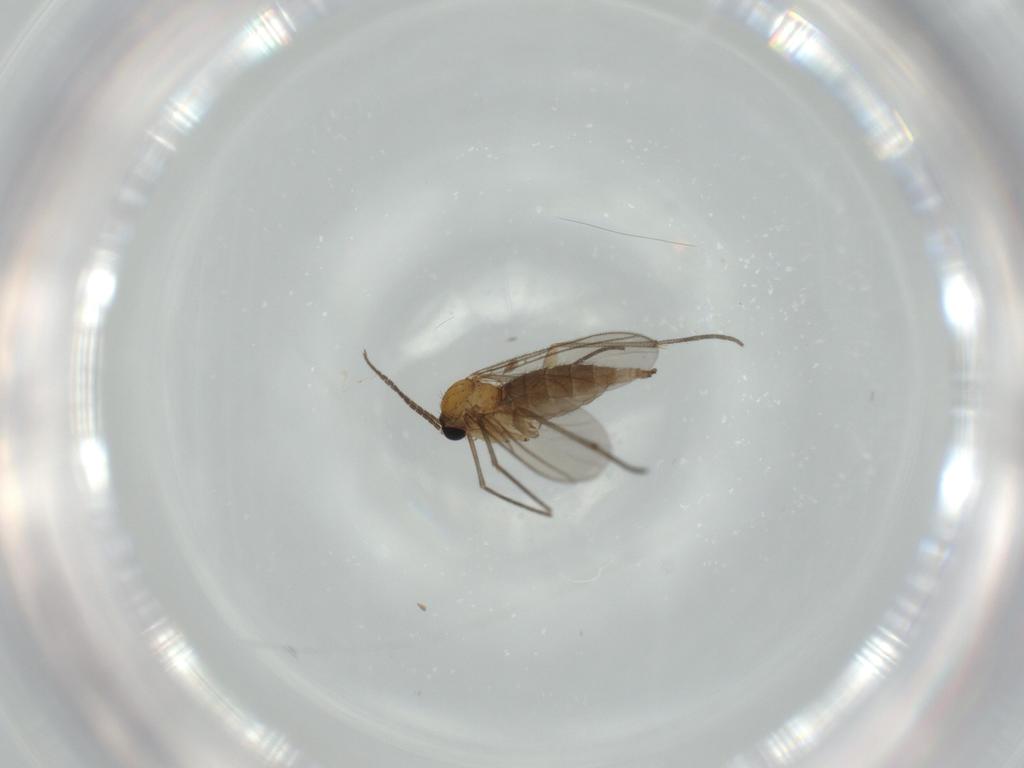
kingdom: Animalia
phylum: Arthropoda
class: Insecta
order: Diptera
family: Sciaridae
